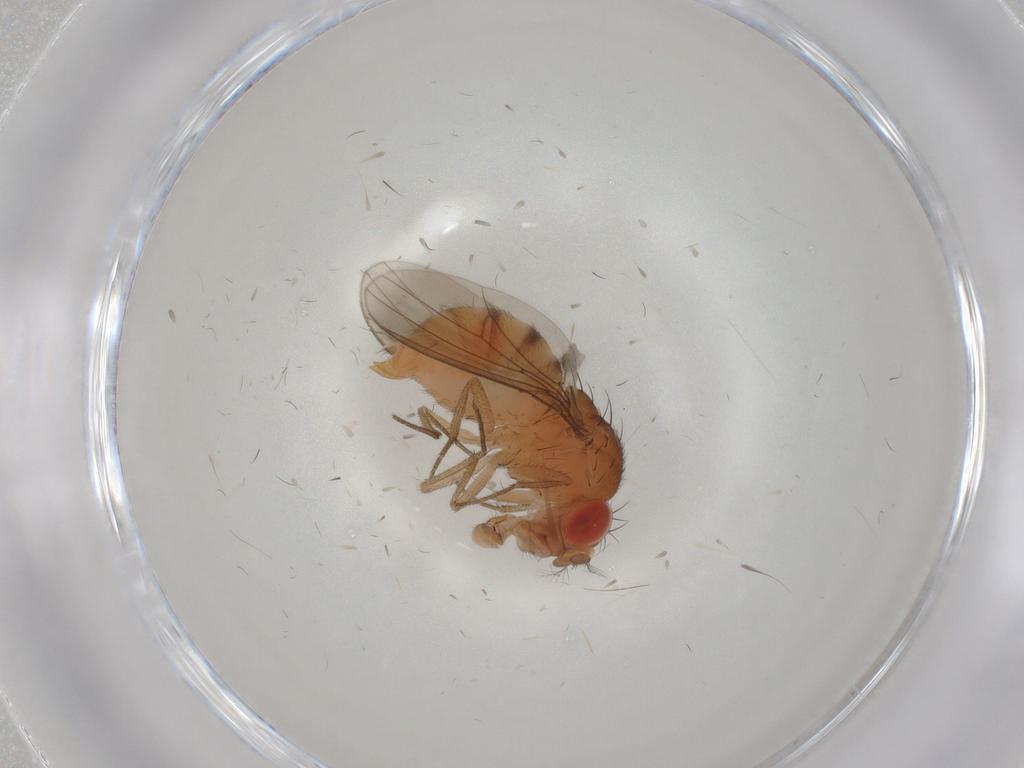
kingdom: Animalia
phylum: Arthropoda
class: Insecta
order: Diptera
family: Drosophilidae
